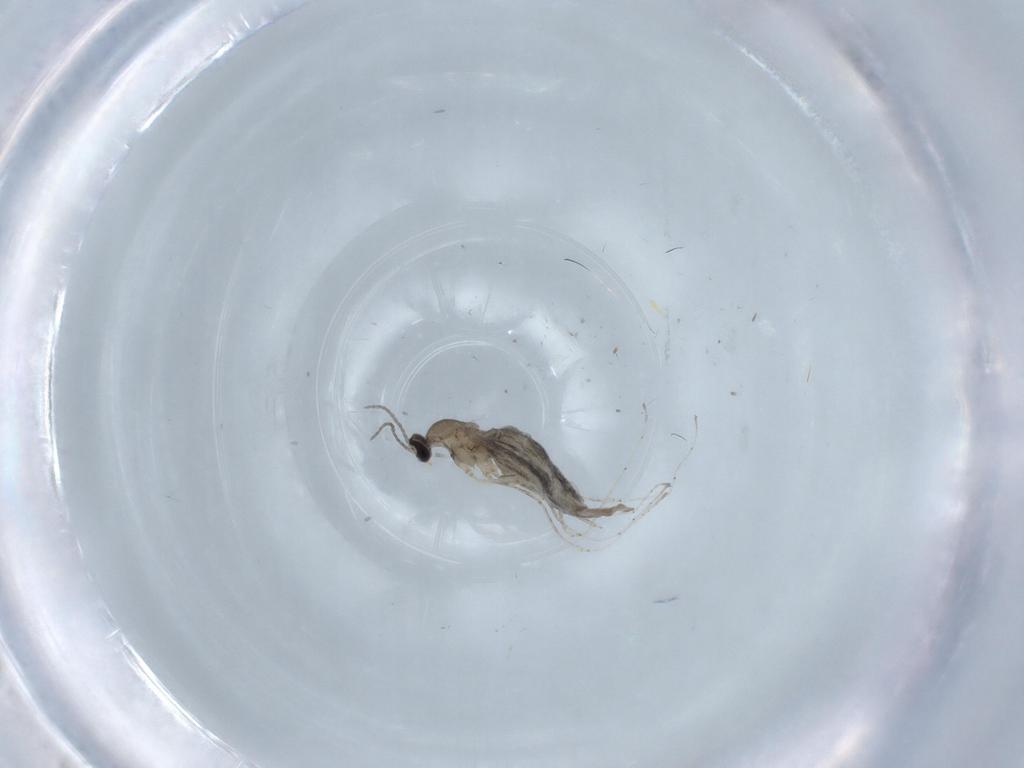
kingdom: Animalia
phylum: Arthropoda
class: Insecta
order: Diptera
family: Cecidomyiidae
